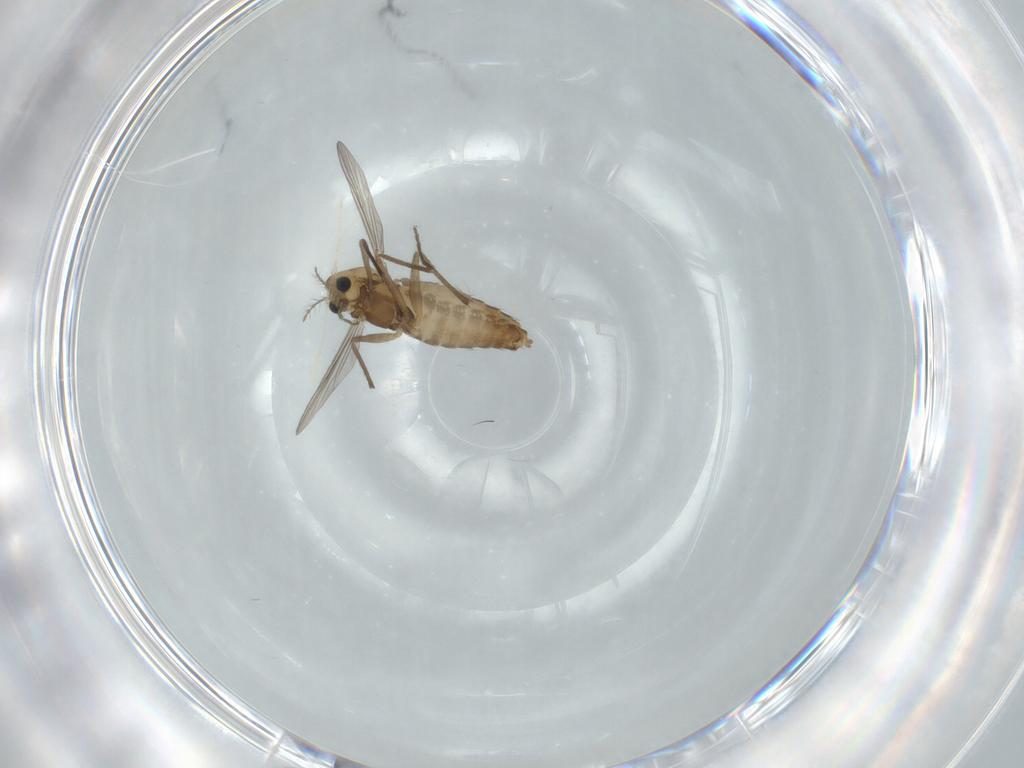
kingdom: Animalia
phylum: Arthropoda
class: Insecta
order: Diptera
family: Chironomidae
